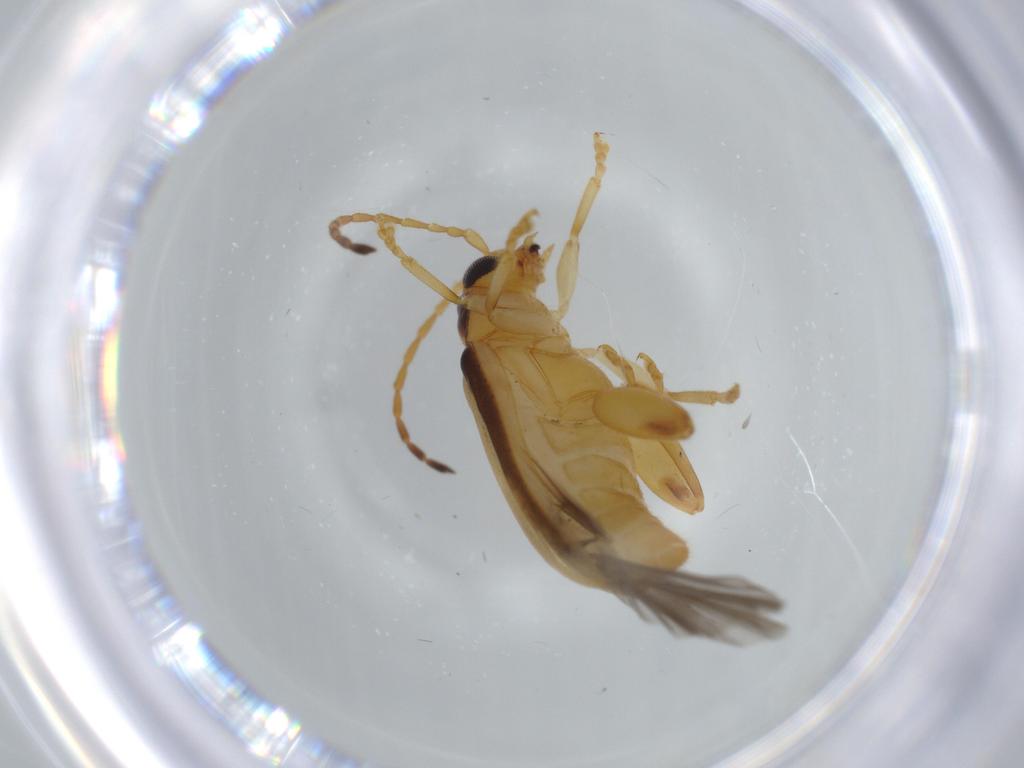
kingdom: Animalia
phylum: Arthropoda
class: Insecta
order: Coleoptera
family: Chrysomelidae
